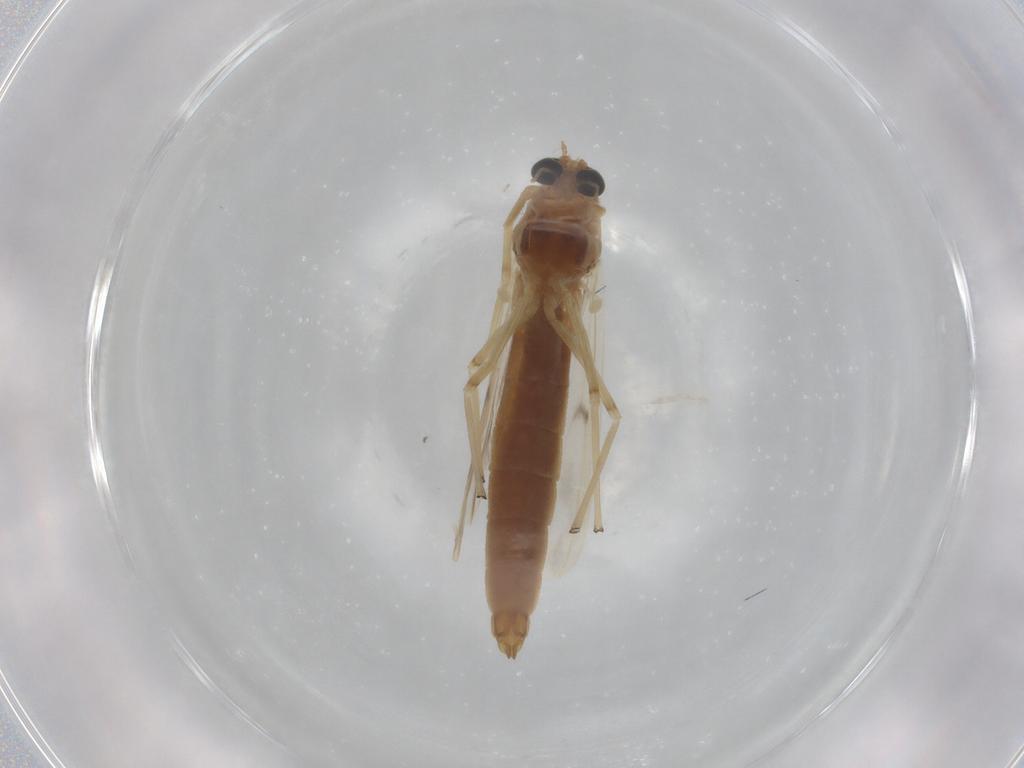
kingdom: Animalia
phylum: Arthropoda
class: Insecta
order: Diptera
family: Chironomidae
